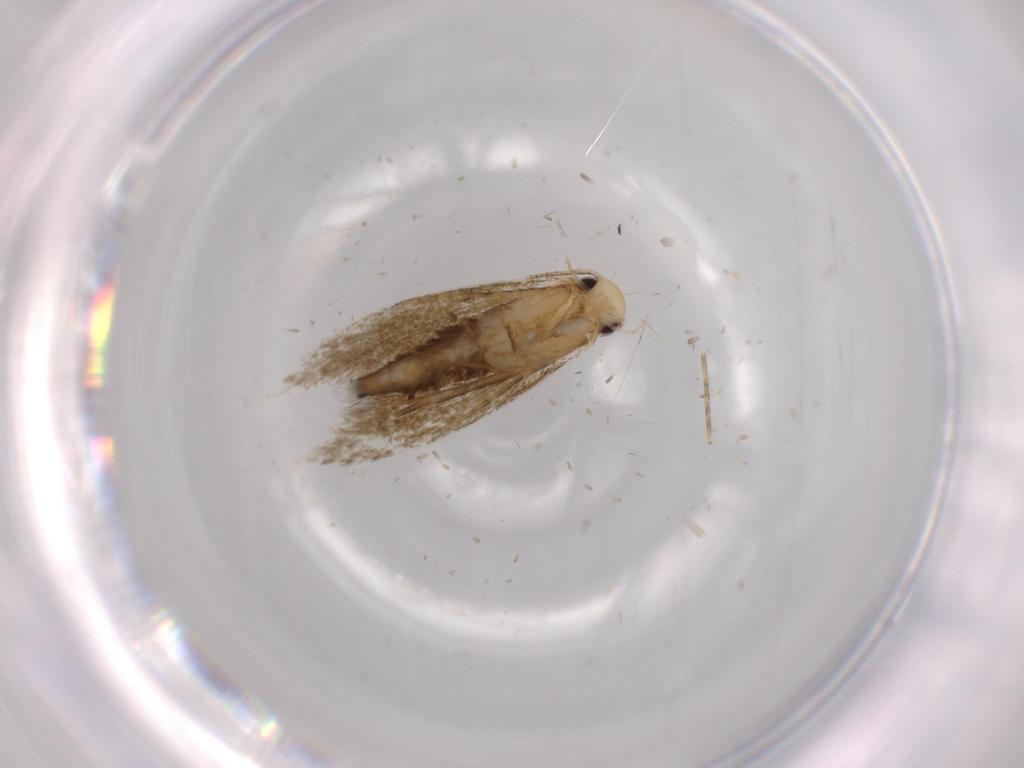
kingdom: Animalia
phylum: Arthropoda
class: Insecta
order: Lepidoptera
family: Tineidae
